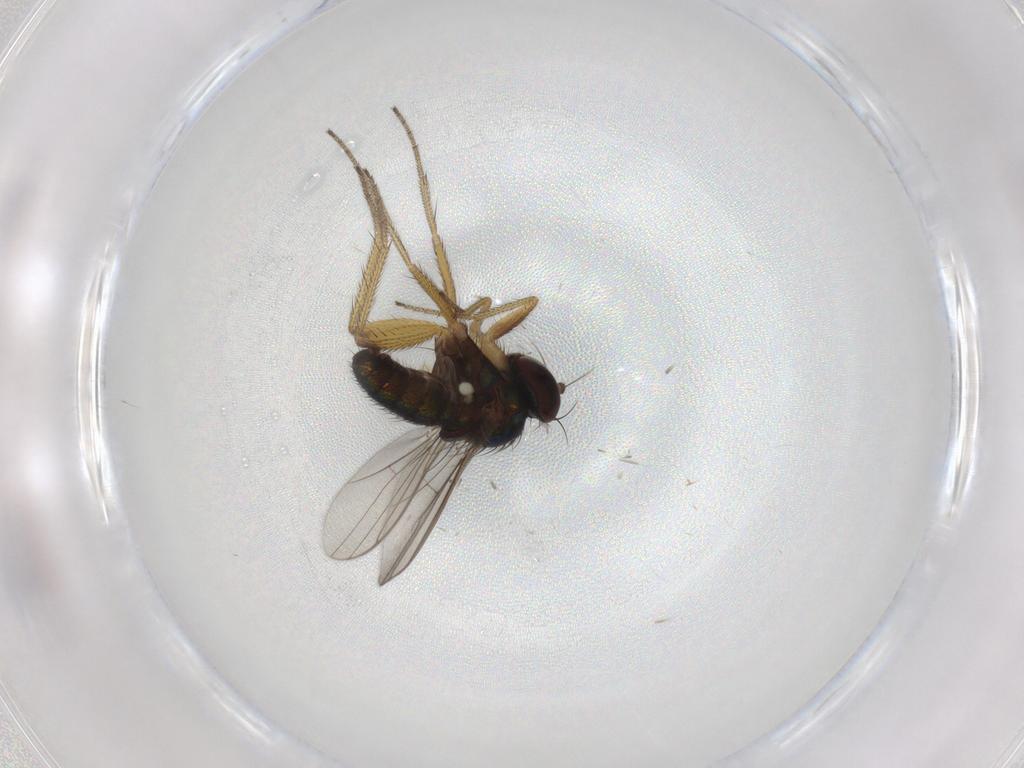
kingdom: Animalia
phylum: Arthropoda
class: Insecta
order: Diptera
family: Dolichopodidae
